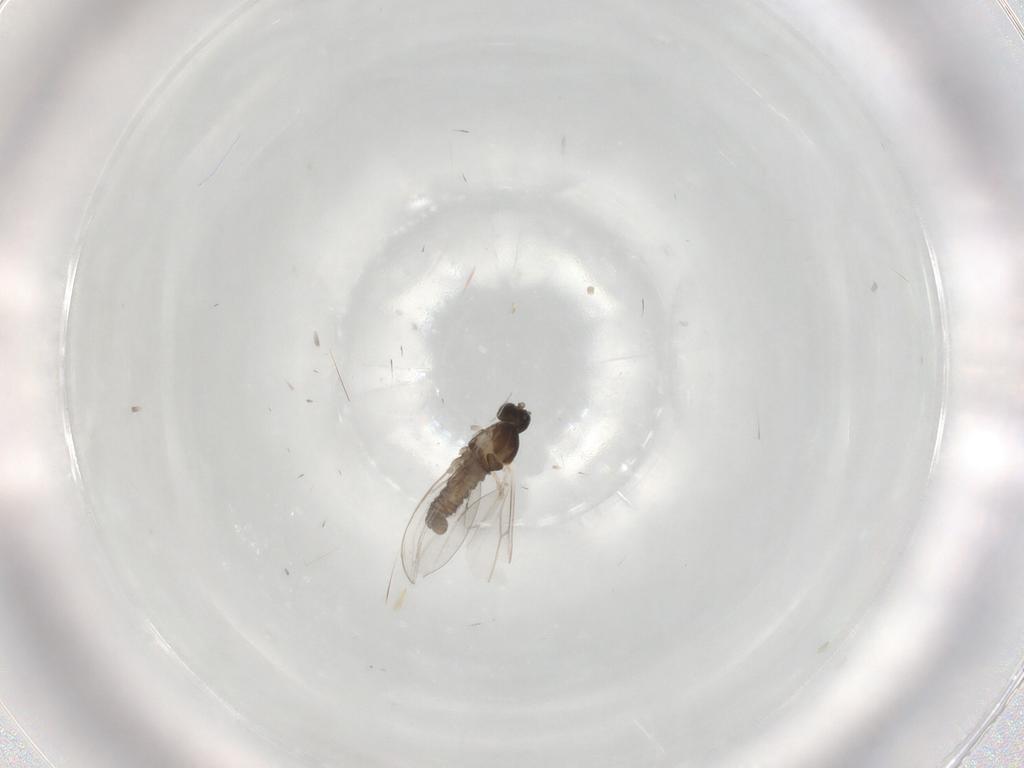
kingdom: Animalia
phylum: Arthropoda
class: Insecta
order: Diptera
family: Cecidomyiidae
